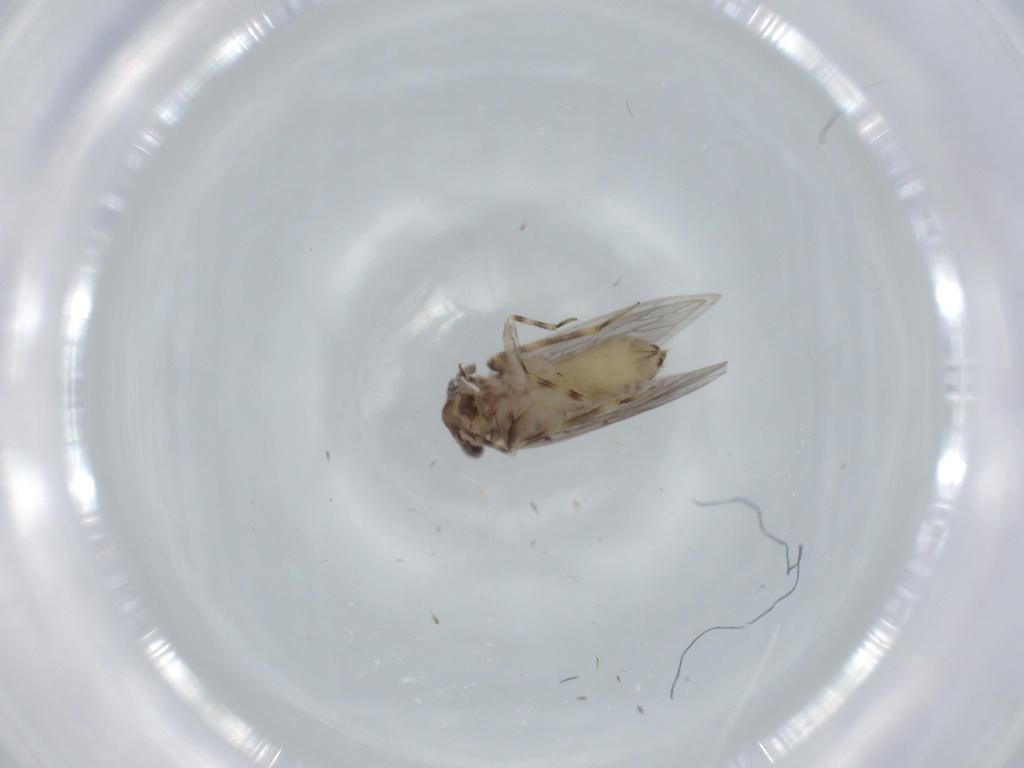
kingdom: Animalia
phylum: Arthropoda
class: Insecta
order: Psocodea
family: Lepidopsocidae
